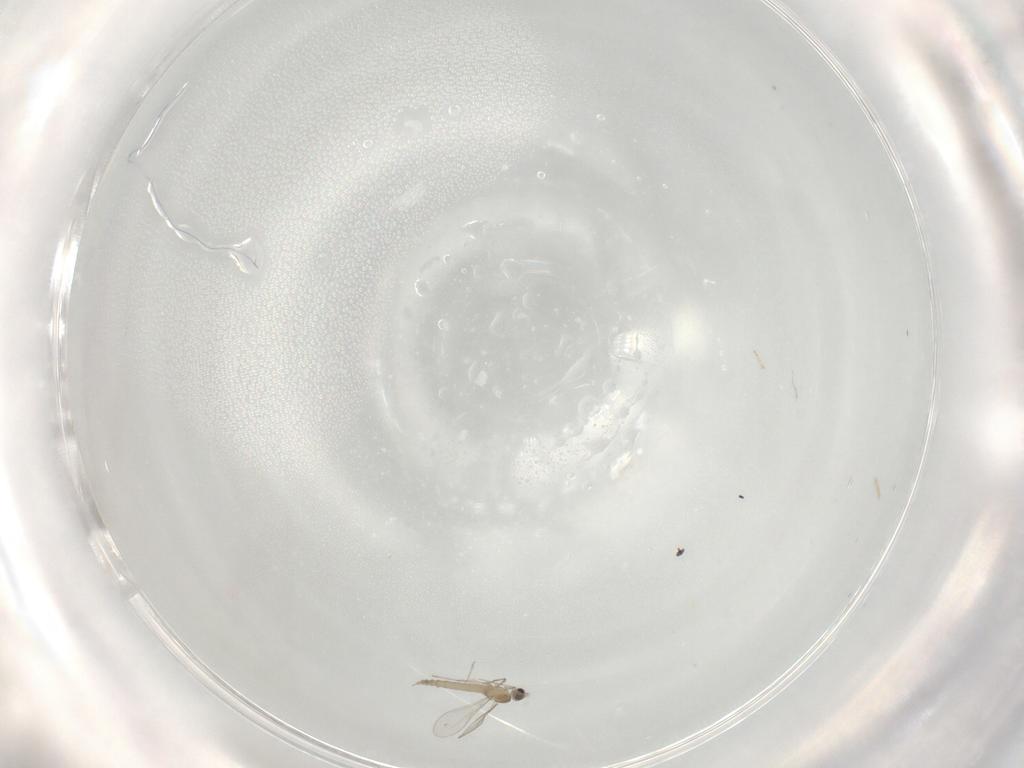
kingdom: Animalia
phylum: Arthropoda
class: Insecta
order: Diptera
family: Cecidomyiidae
